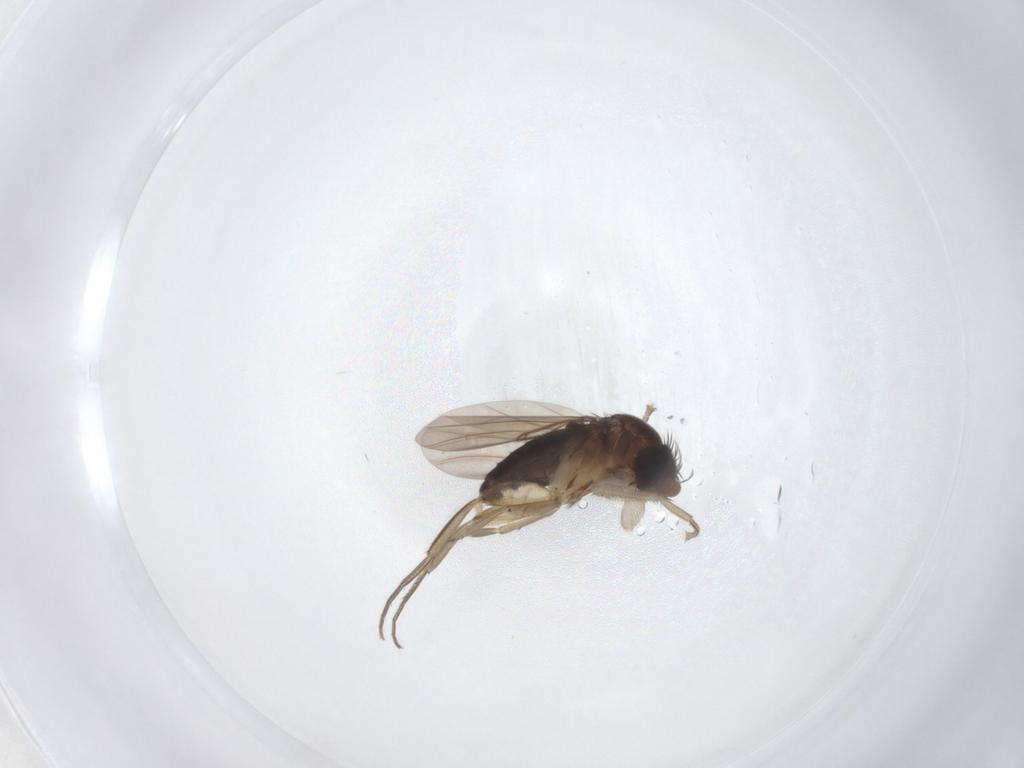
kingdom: Animalia
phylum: Arthropoda
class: Insecta
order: Diptera
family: Phoridae
